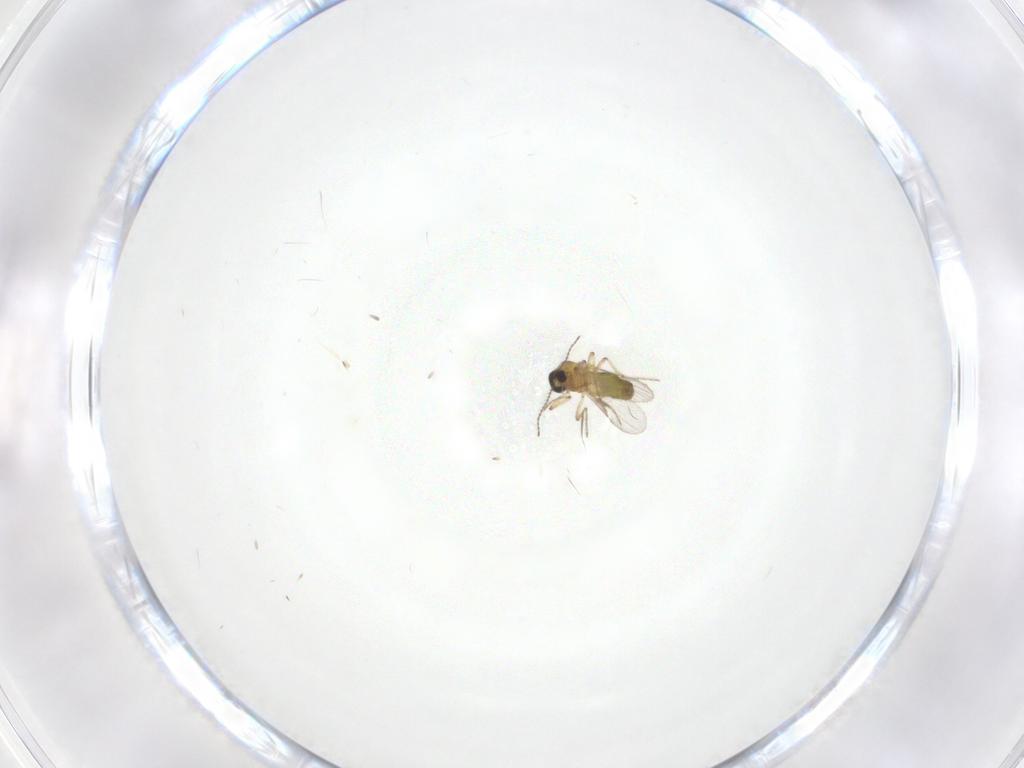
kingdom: Animalia
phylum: Arthropoda
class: Insecta
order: Diptera
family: Ceratopogonidae
